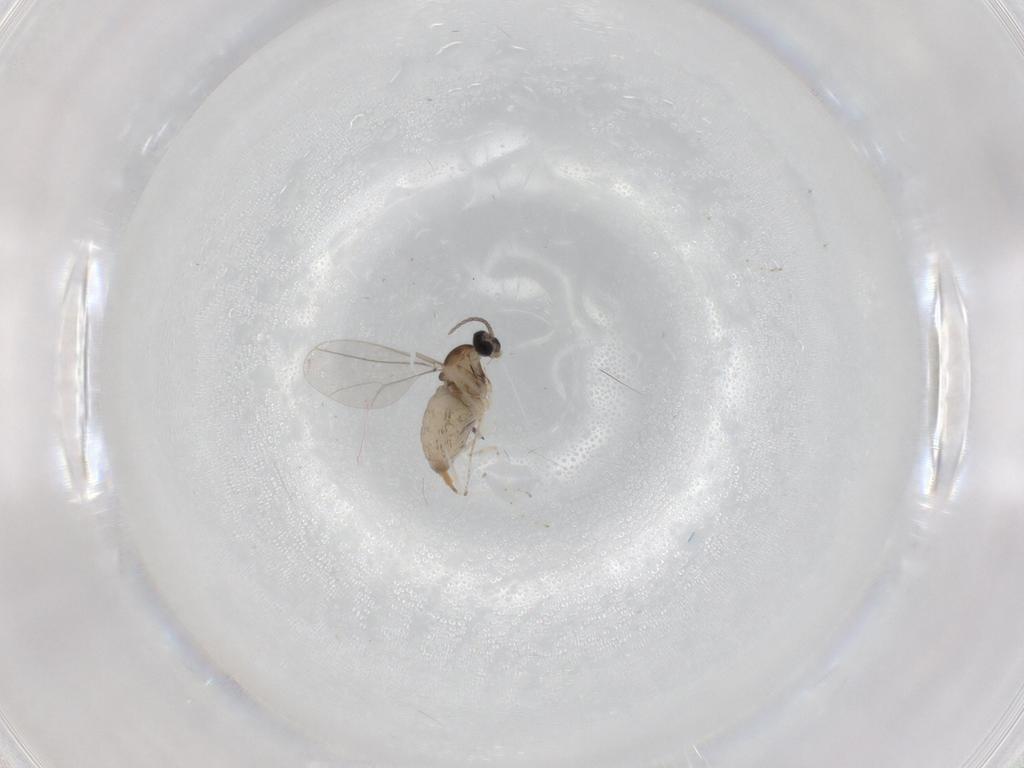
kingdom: Animalia
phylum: Arthropoda
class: Insecta
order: Diptera
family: Cecidomyiidae
